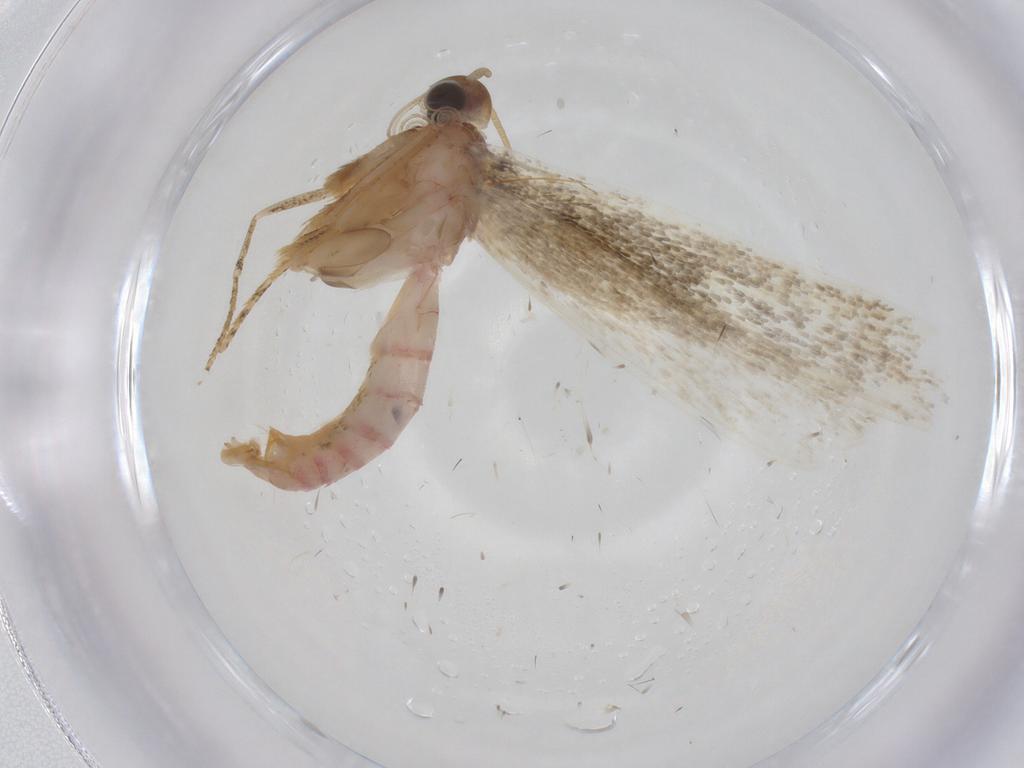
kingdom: Animalia
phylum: Arthropoda
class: Insecta
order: Lepidoptera
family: Crambidae
